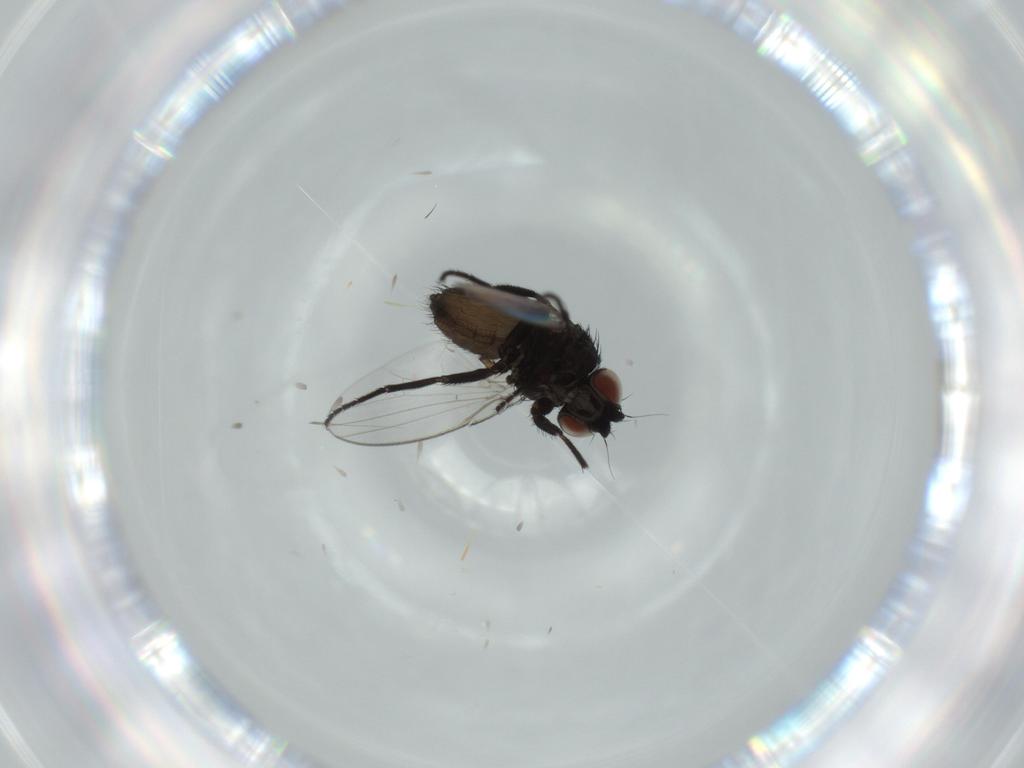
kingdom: Animalia
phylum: Arthropoda
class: Insecta
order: Diptera
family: Milichiidae
